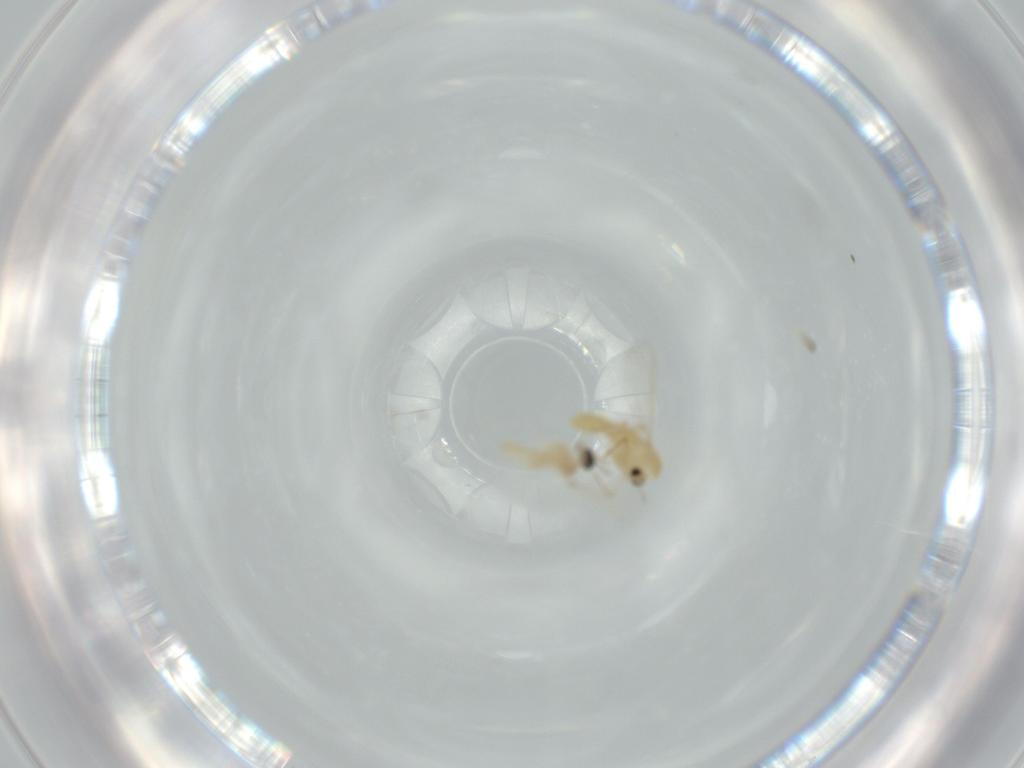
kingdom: Animalia
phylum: Arthropoda
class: Insecta
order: Diptera
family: Chironomidae
